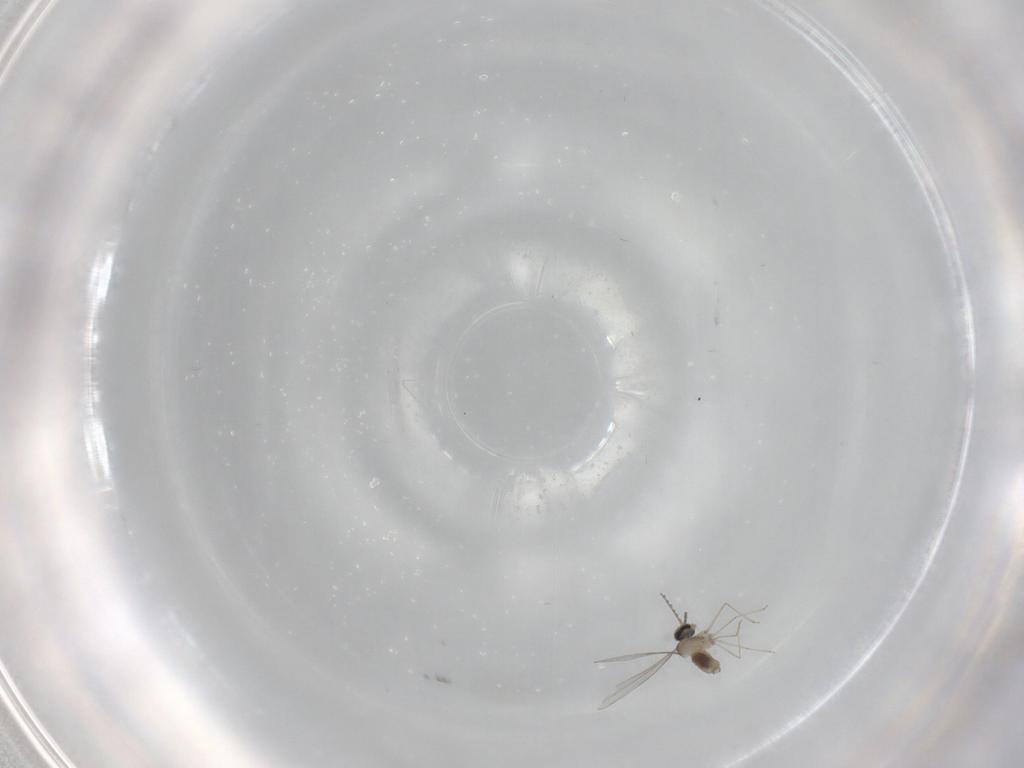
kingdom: Animalia
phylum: Arthropoda
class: Insecta
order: Diptera
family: Cecidomyiidae
